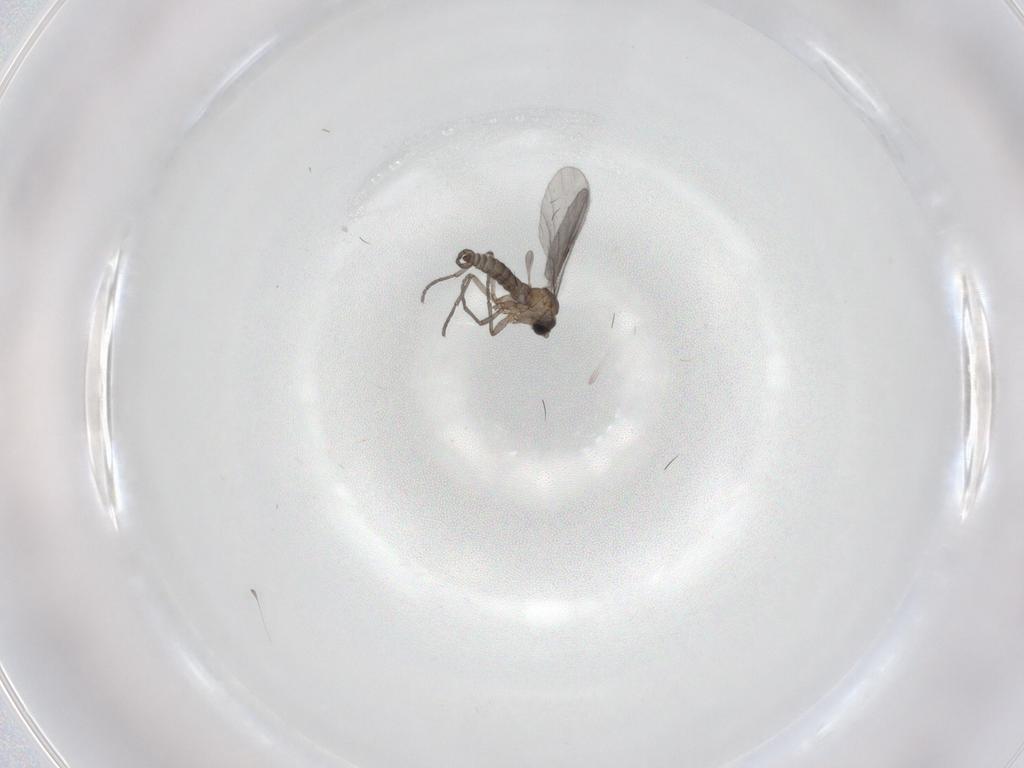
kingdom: Animalia
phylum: Arthropoda
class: Insecta
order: Diptera
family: Sciaridae
